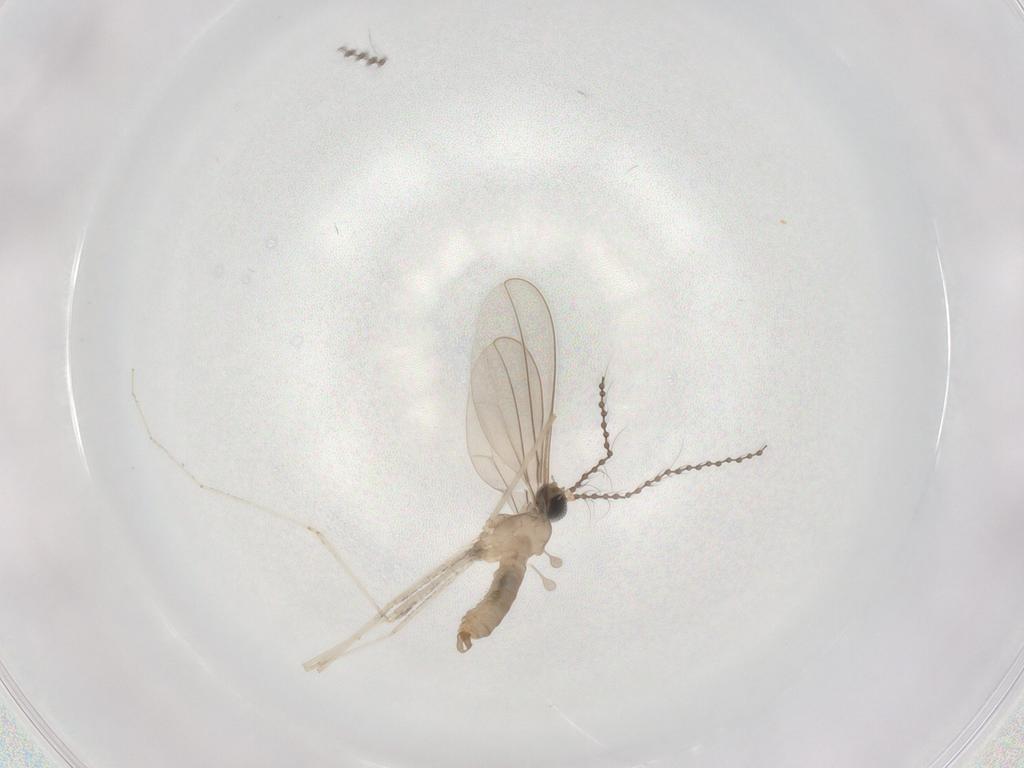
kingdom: Animalia
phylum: Arthropoda
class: Insecta
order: Diptera
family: Cecidomyiidae
